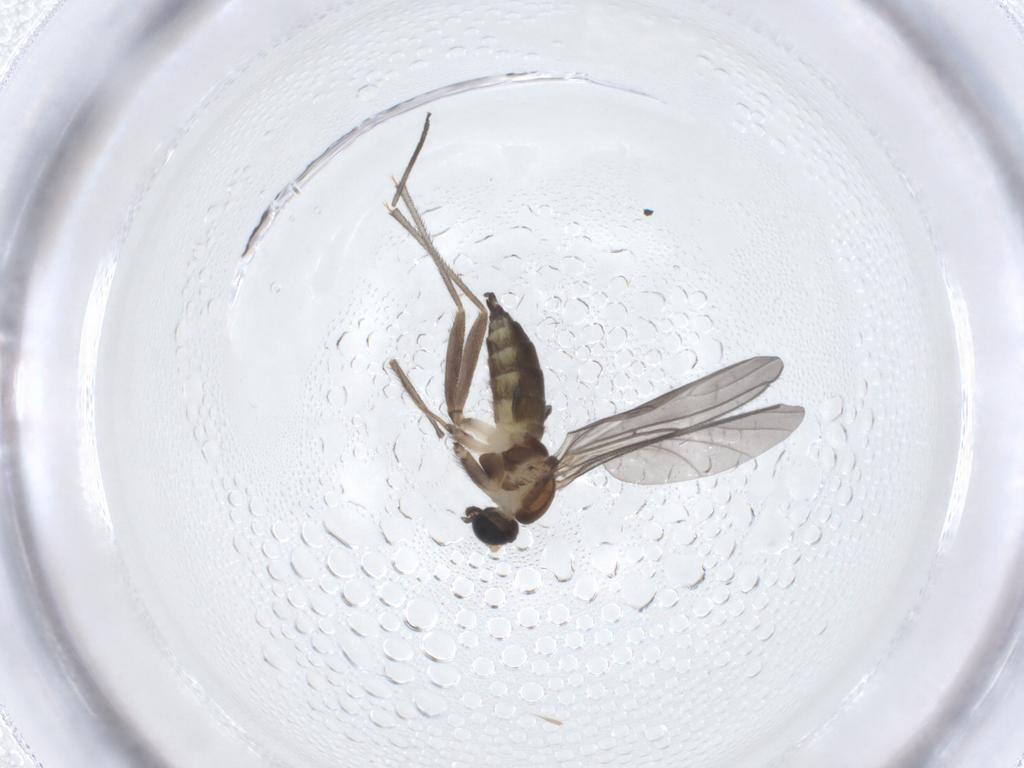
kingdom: Animalia
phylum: Arthropoda
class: Insecta
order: Diptera
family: Sciaridae
